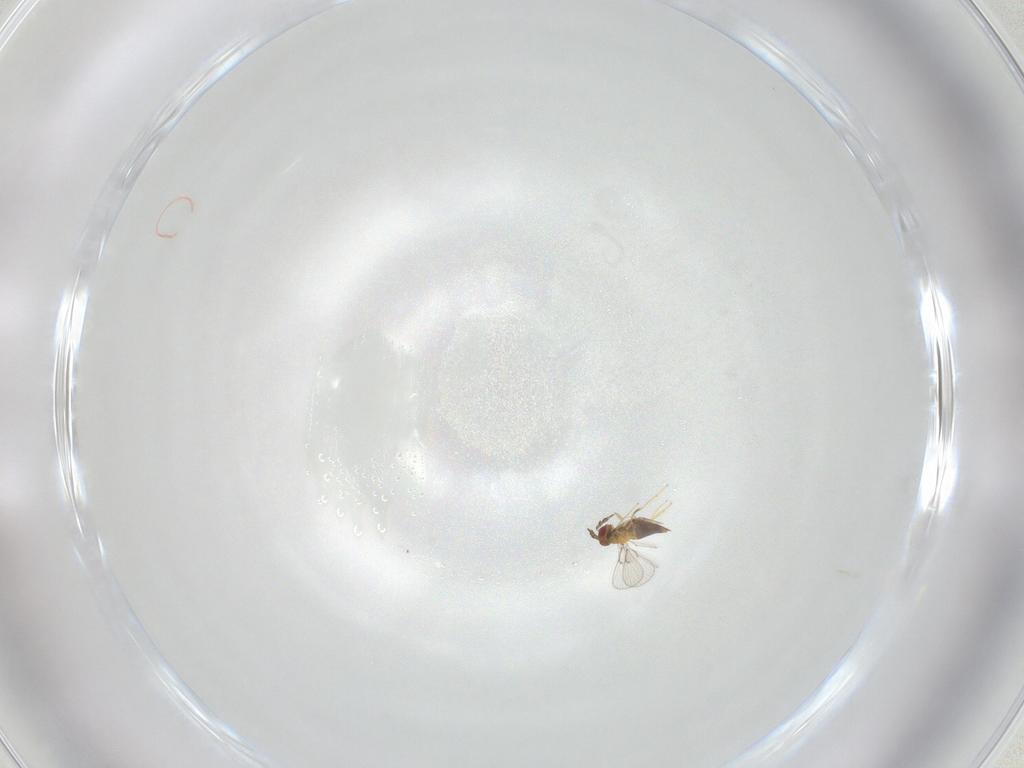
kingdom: Animalia
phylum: Arthropoda
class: Insecta
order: Hymenoptera
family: Trichogrammatidae
